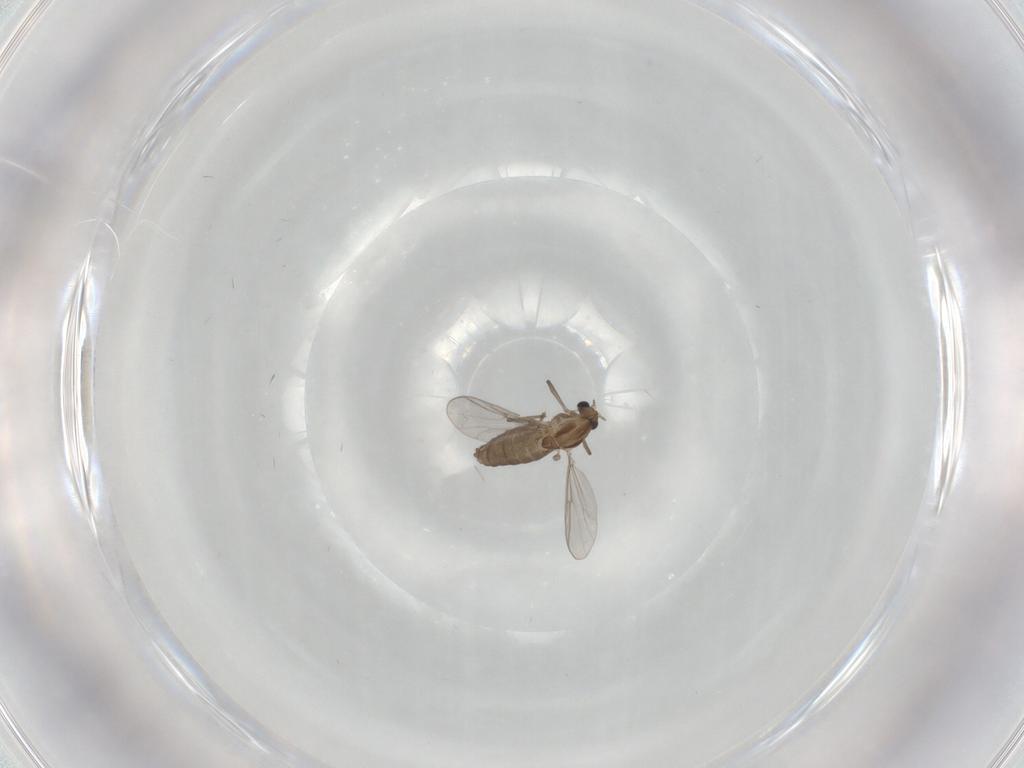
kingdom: Animalia
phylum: Arthropoda
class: Insecta
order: Diptera
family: Chironomidae
